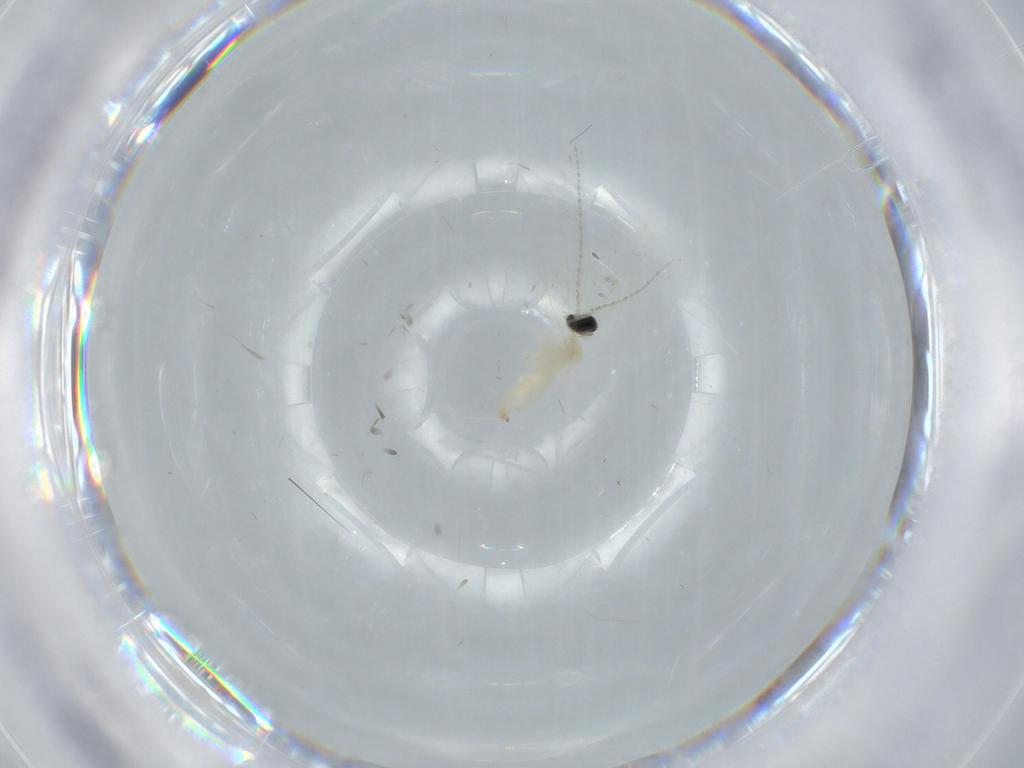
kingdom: Animalia
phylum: Arthropoda
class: Insecta
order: Diptera
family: Cecidomyiidae
